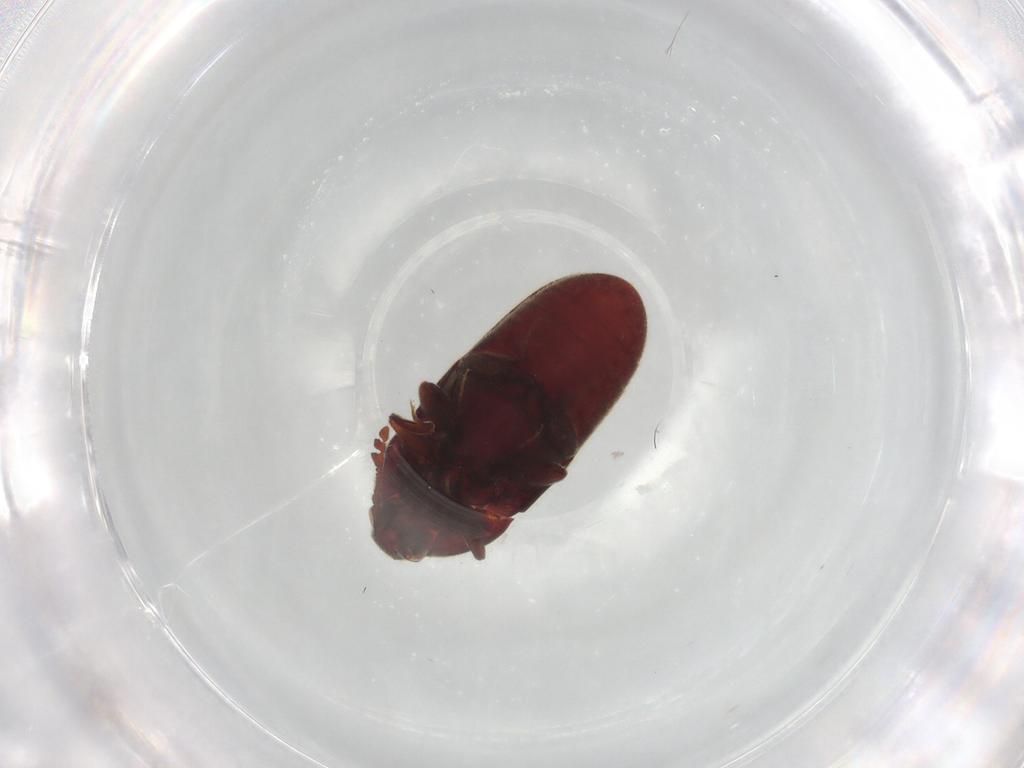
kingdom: Animalia
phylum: Arthropoda
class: Insecta
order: Coleoptera
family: Throscidae
